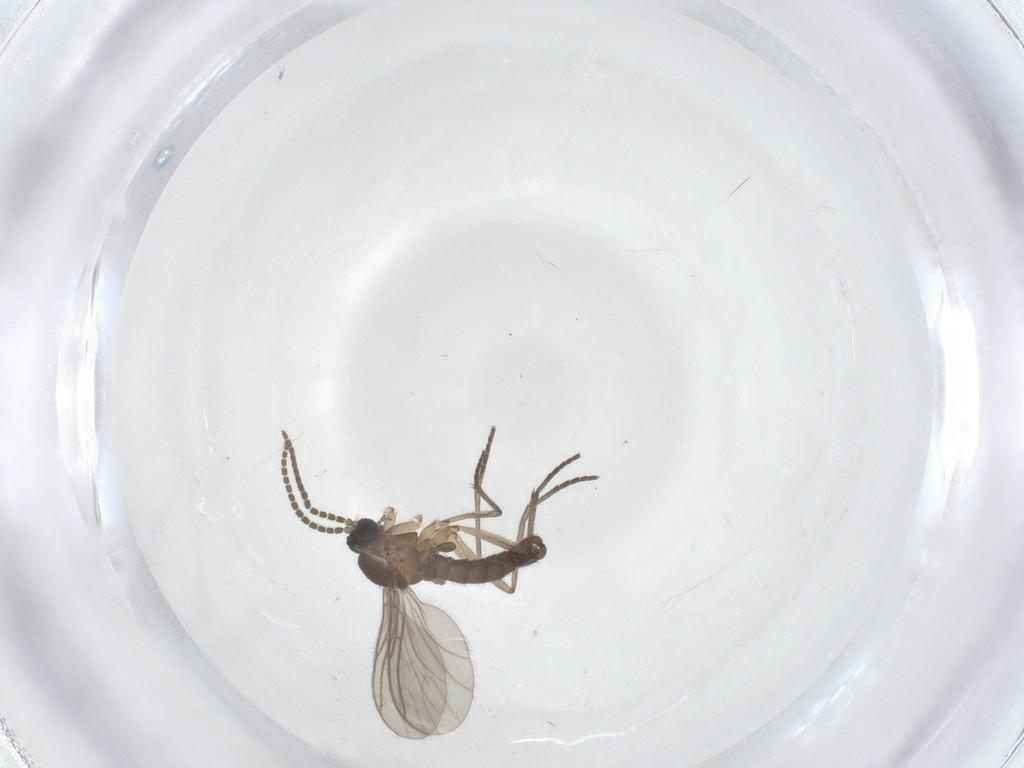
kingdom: Animalia
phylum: Arthropoda
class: Insecta
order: Diptera
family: Sciaridae
